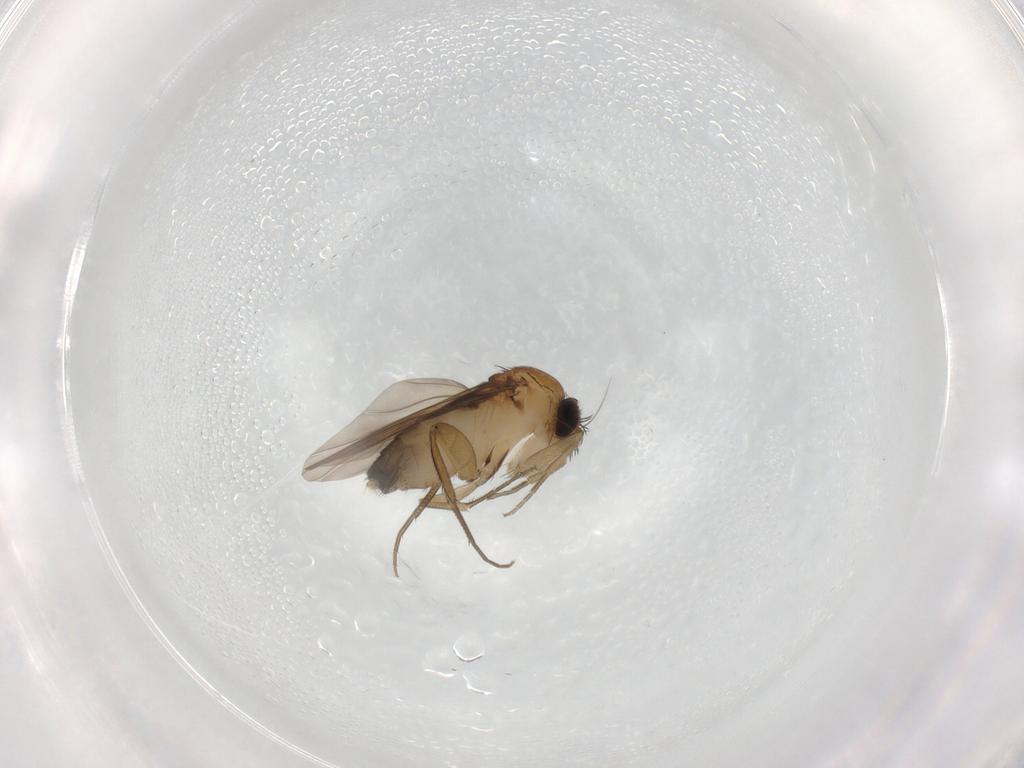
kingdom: Animalia
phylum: Arthropoda
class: Insecta
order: Diptera
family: Phoridae
